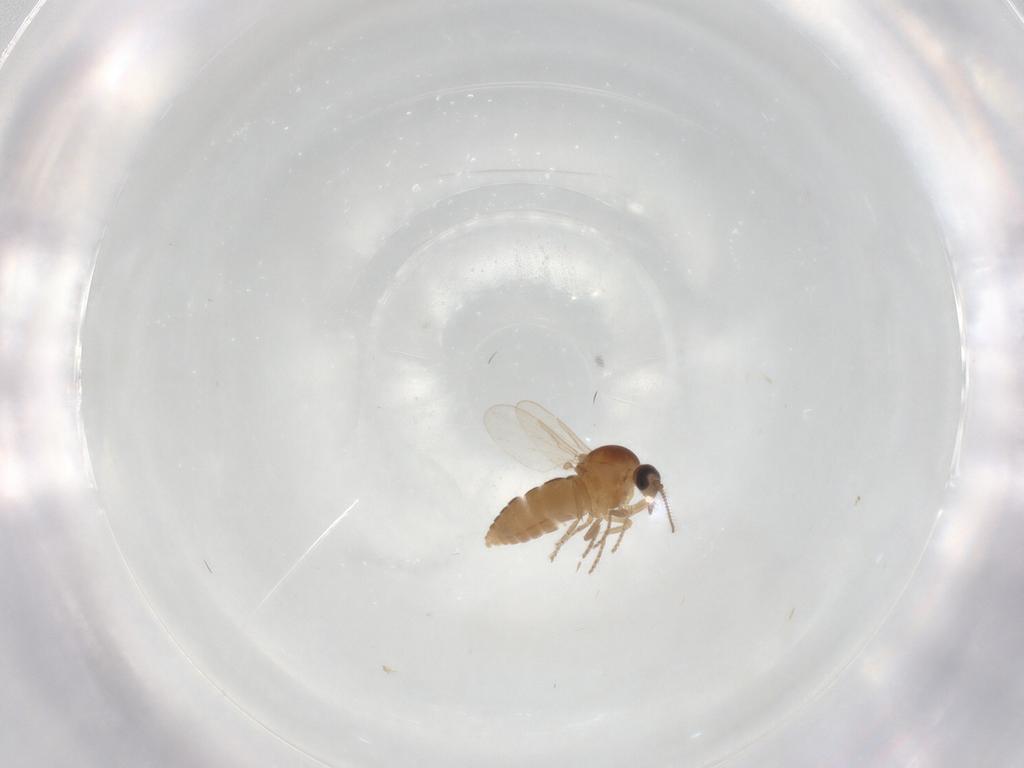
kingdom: Animalia
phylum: Arthropoda
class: Insecta
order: Diptera
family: Ceratopogonidae
